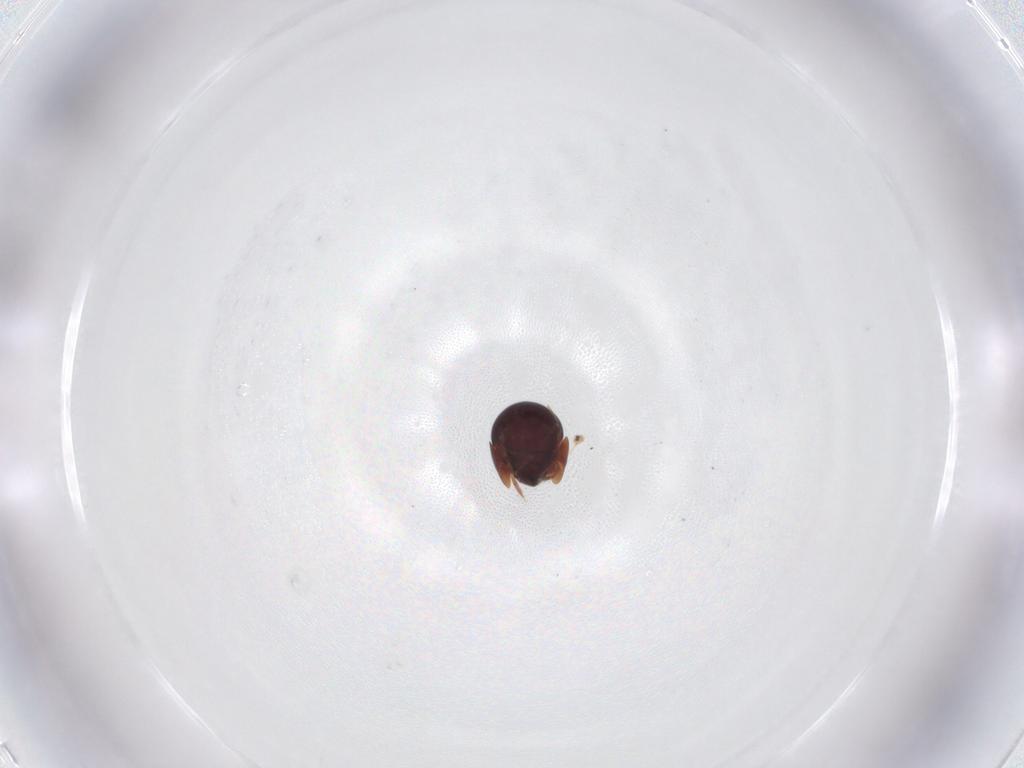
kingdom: Animalia
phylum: Arthropoda
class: Arachnida
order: Sarcoptiformes
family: Galumnidae
